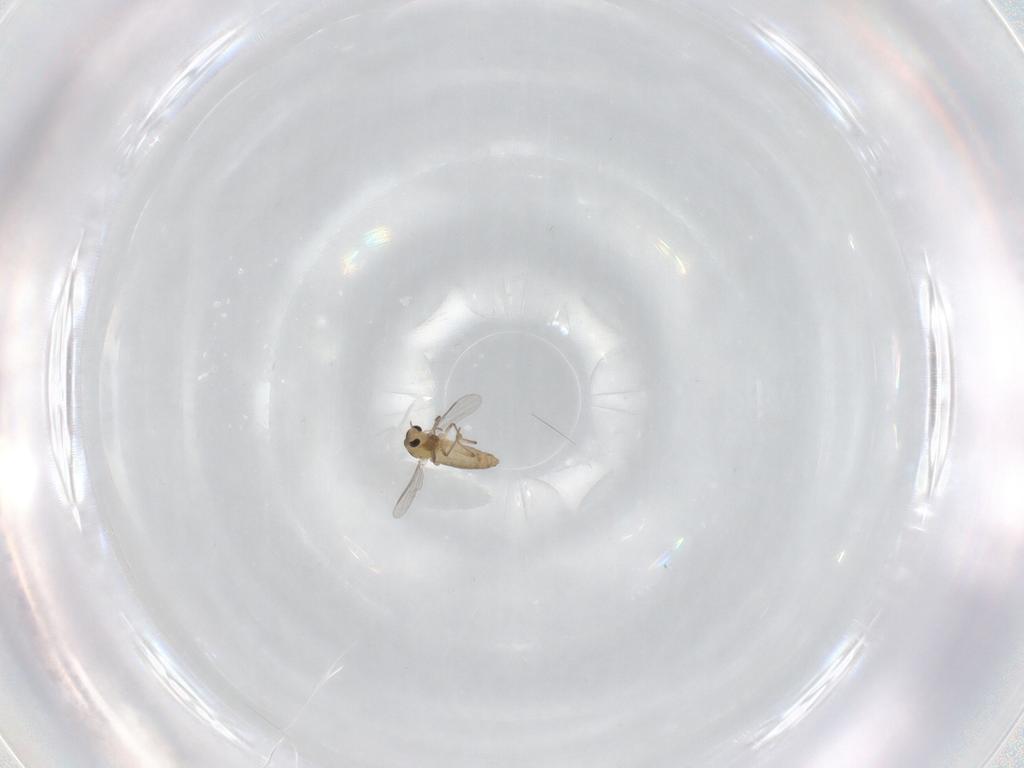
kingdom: Animalia
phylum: Arthropoda
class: Insecta
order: Diptera
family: Chironomidae
